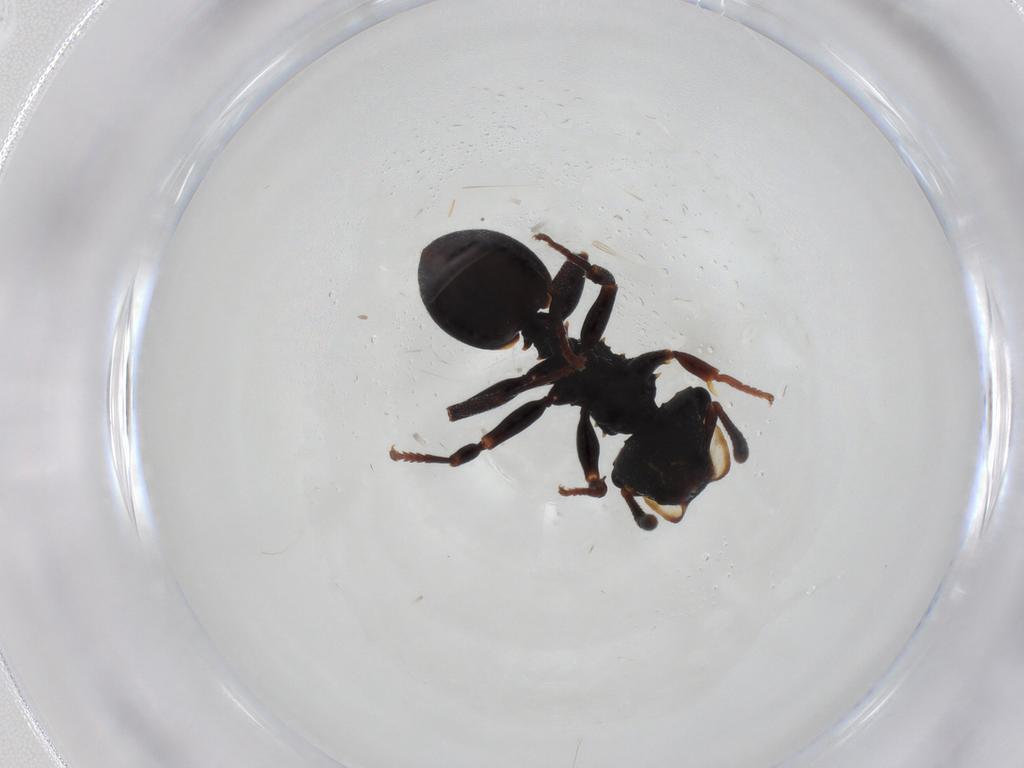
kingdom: Animalia
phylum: Arthropoda
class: Insecta
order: Hymenoptera
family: Formicidae
